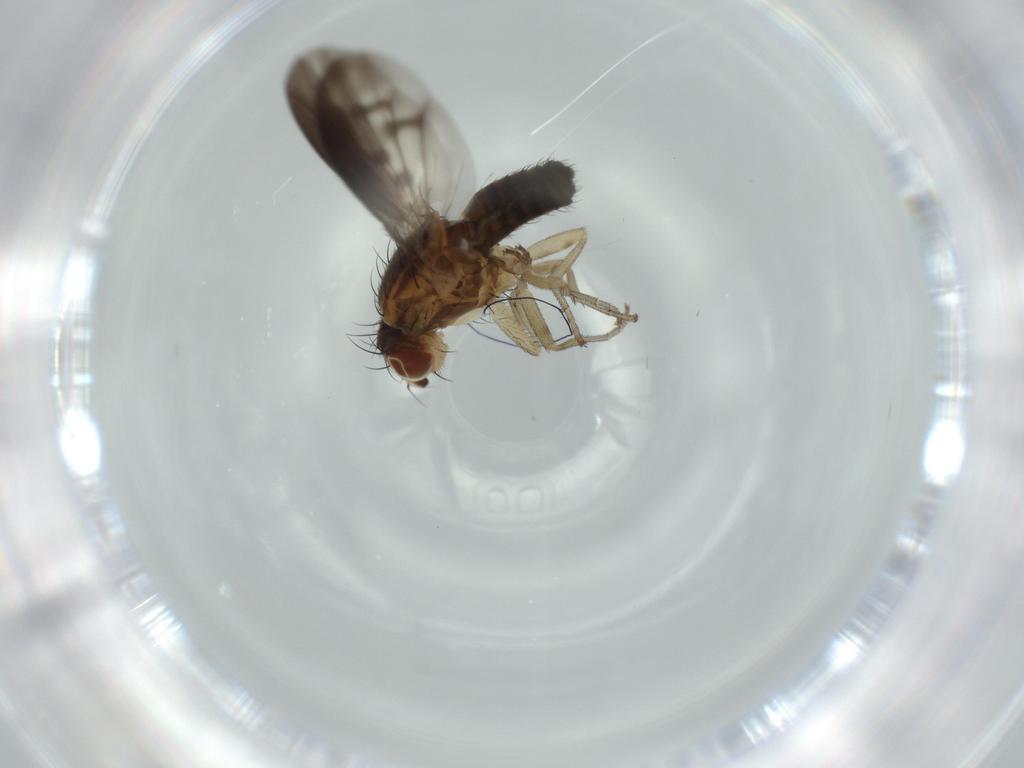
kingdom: Animalia
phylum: Arthropoda
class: Insecta
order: Diptera
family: Heleomyzidae
